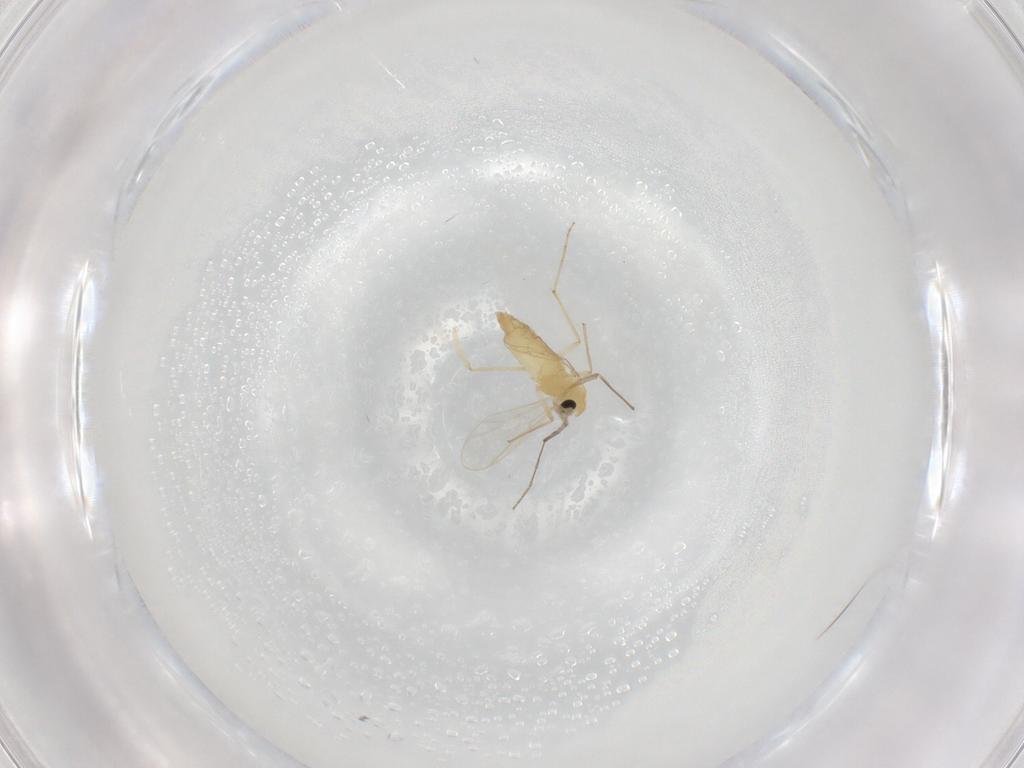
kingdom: Animalia
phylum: Arthropoda
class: Insecta
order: Diptera
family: Chironomidae
